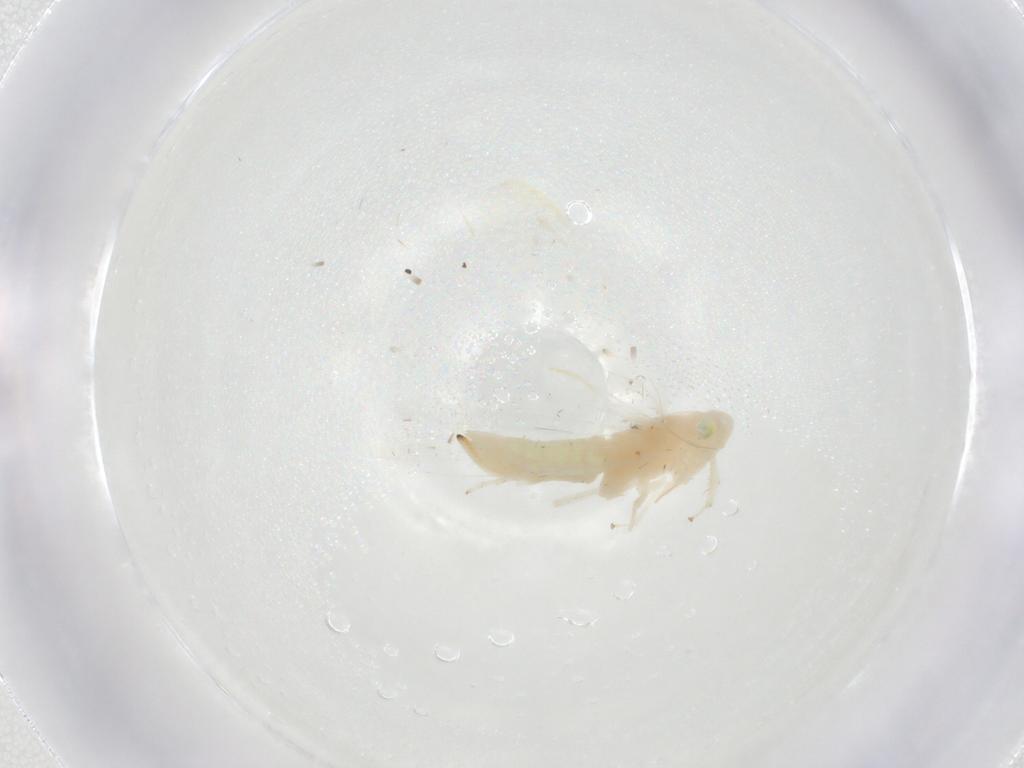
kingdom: Animalia
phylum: Arthropoda
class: Insecta
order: Hemiptera
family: Cicadellidae
